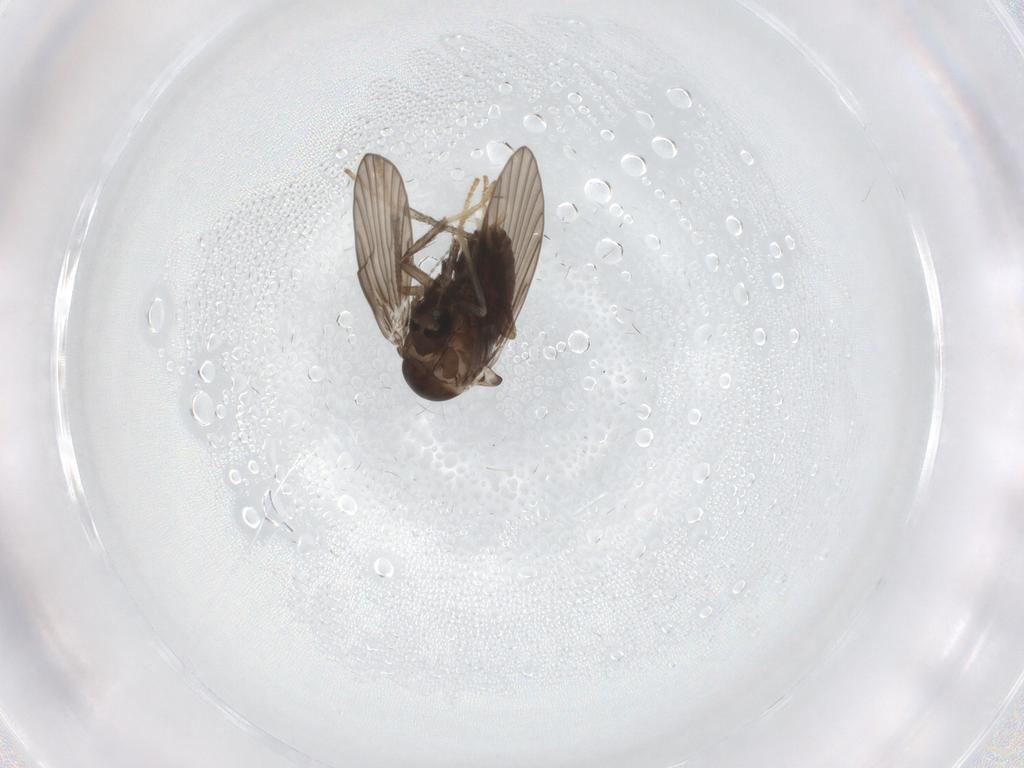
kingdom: Animalia
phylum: Arthropoda
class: Insecta
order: Diptera
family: Psychodidae
